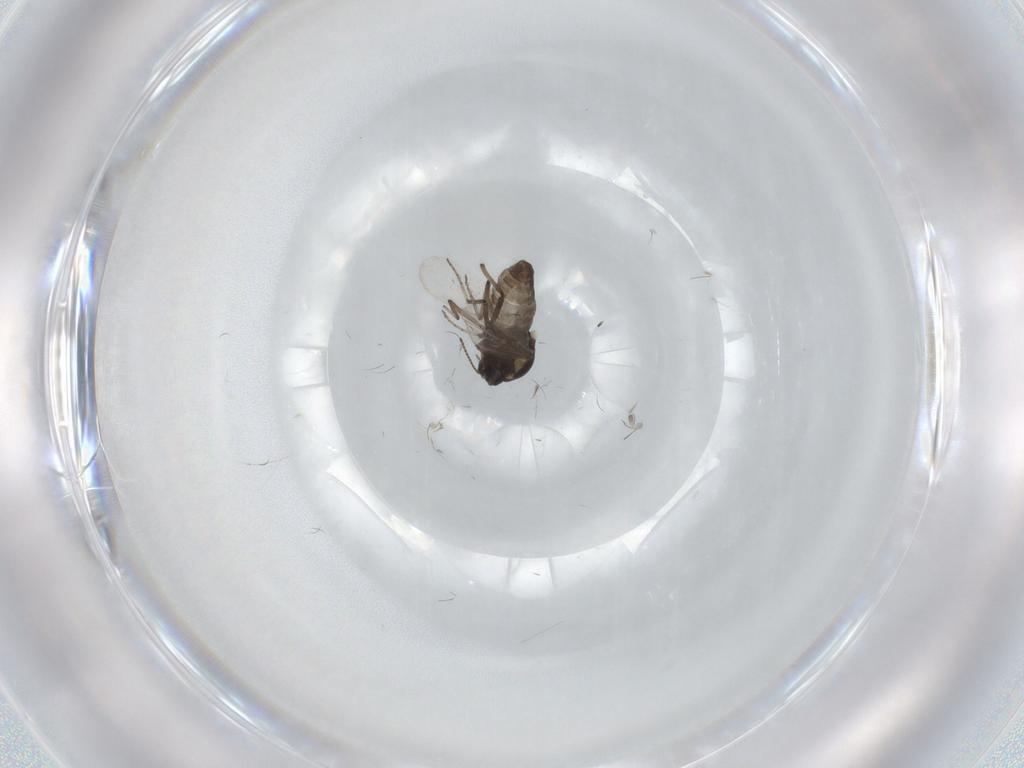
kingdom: Animalia
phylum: Arthropoda
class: Insecta
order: Diptera
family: Ceratopogonidae
